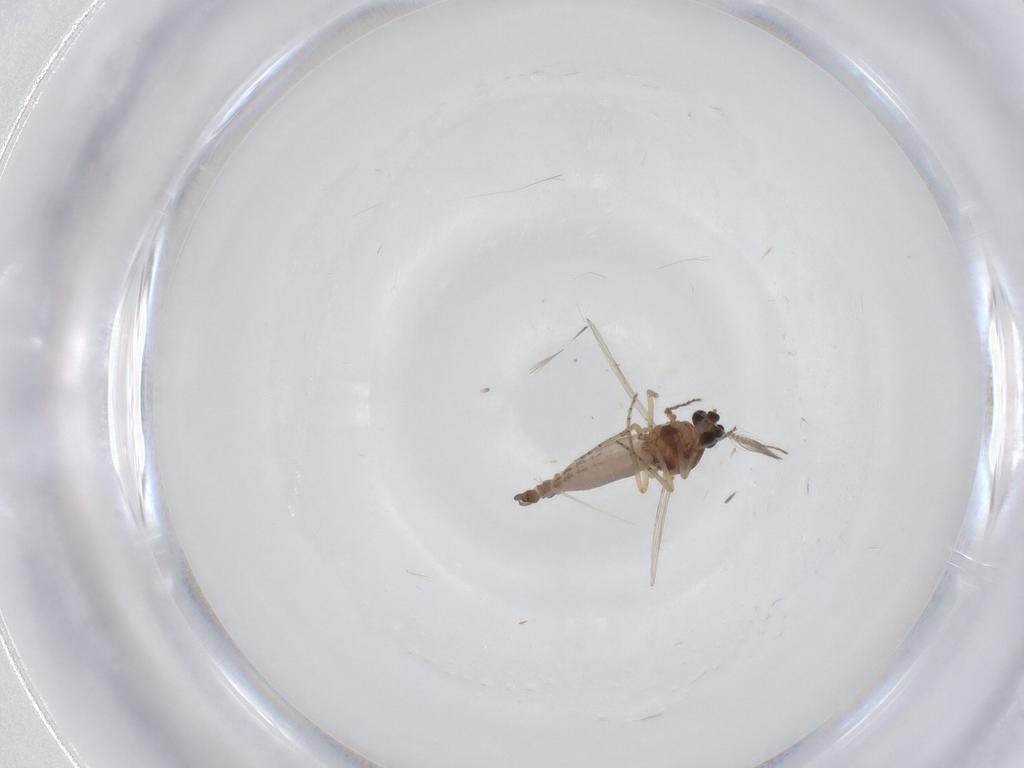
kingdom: Animalia
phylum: Arthropoda
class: Insecta
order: Diptera
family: Ceratopogonidae
